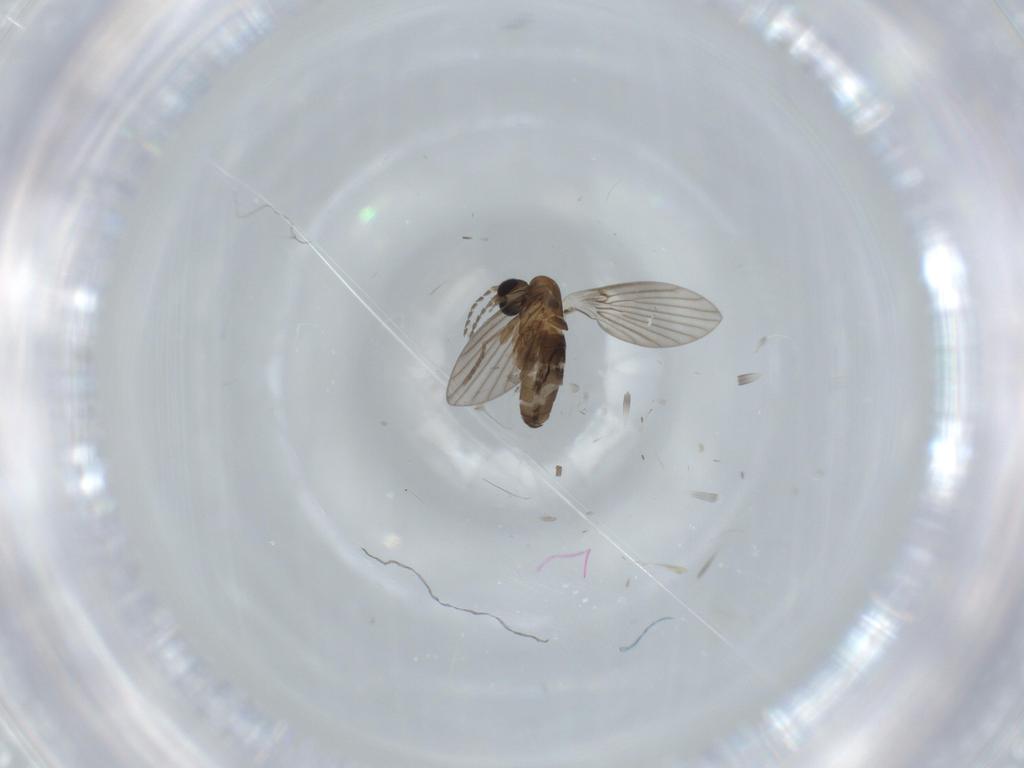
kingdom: Animalia
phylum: Arthropoda
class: Insecta
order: Diptera
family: Psychodidae
